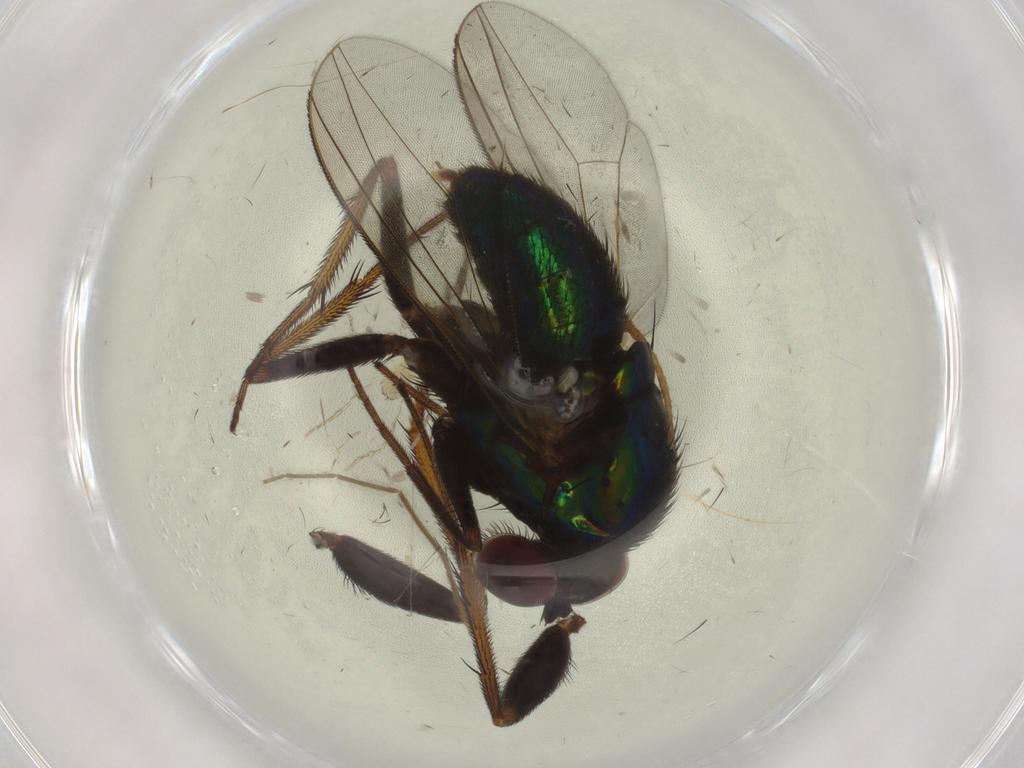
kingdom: Animalia
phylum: Arthropoda
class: Insecta
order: Diptera
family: Dolichopodidae
